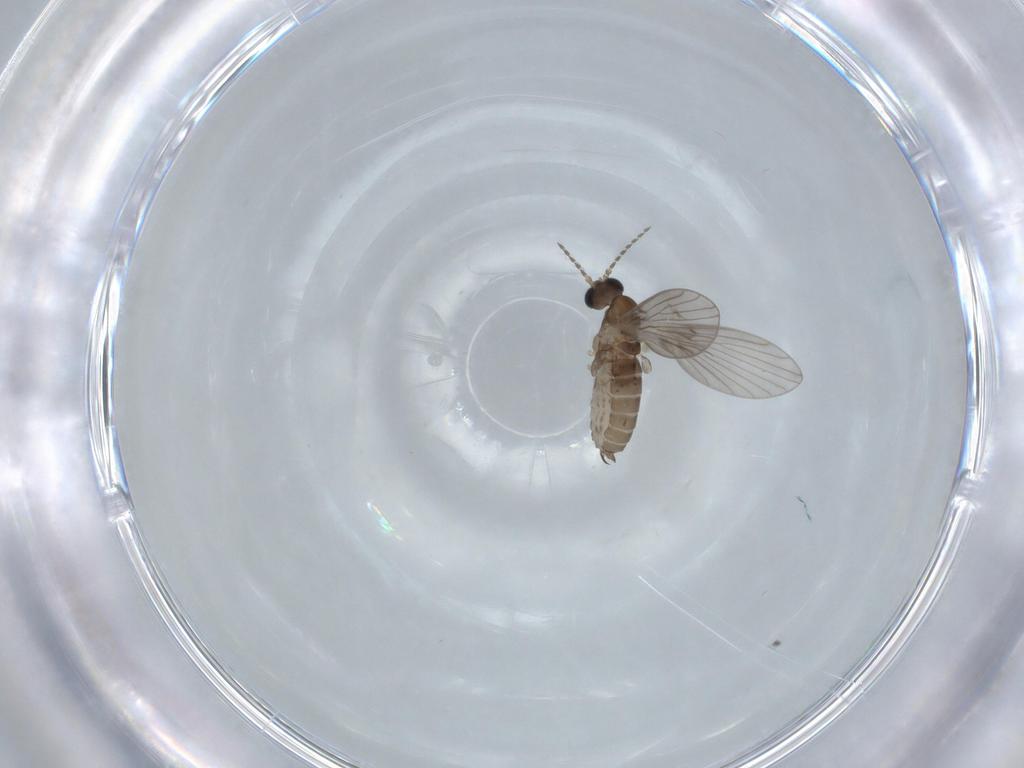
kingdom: Animalia
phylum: Arthropoda
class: Insecta
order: Diptera
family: Psychodidae
